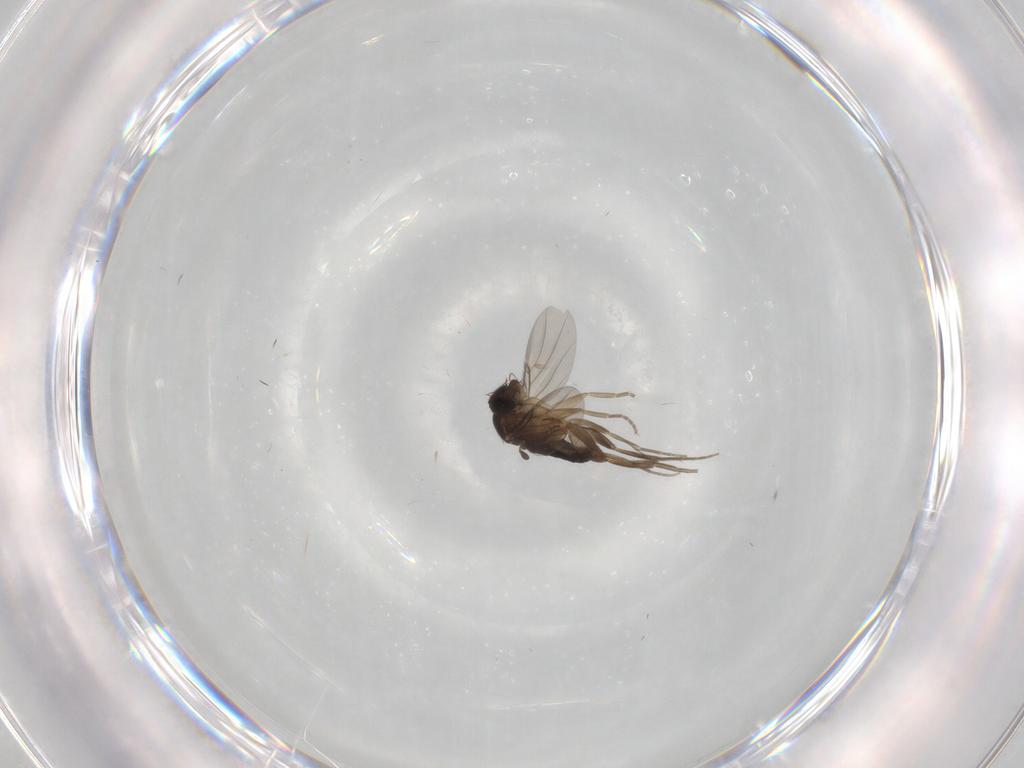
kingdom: Animalia
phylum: Arthropoda
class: Insecta
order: Diptera
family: Phoridae
